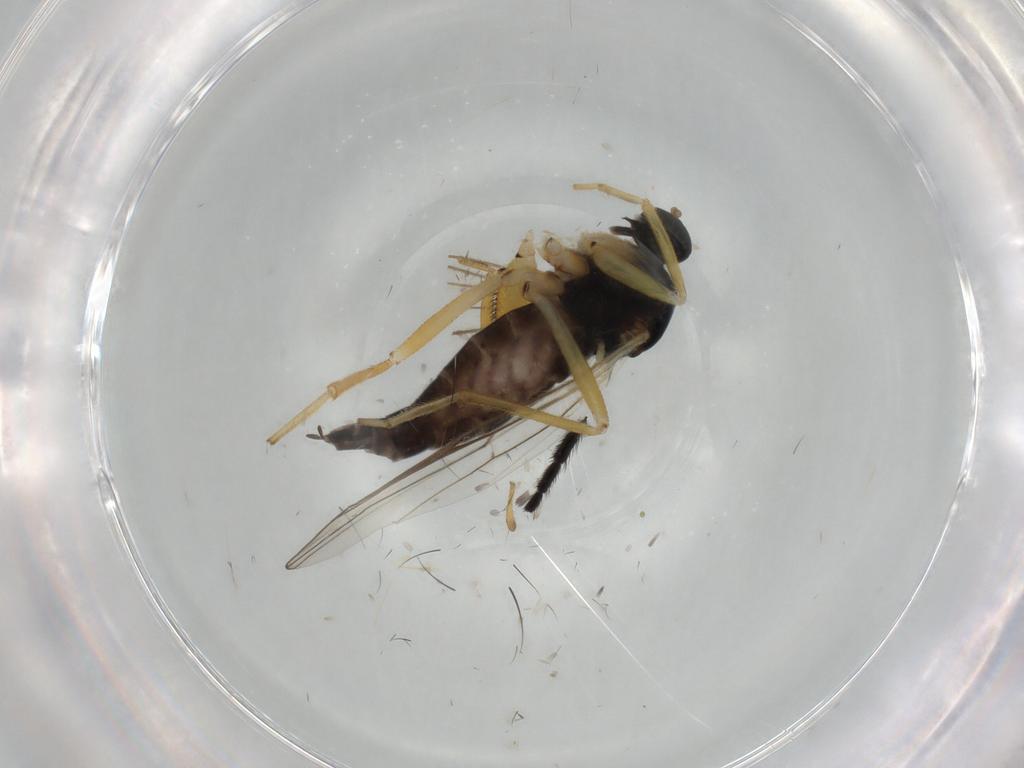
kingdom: Animalia
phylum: Arthropoda
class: Insecta
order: Diptera
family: Empididae
